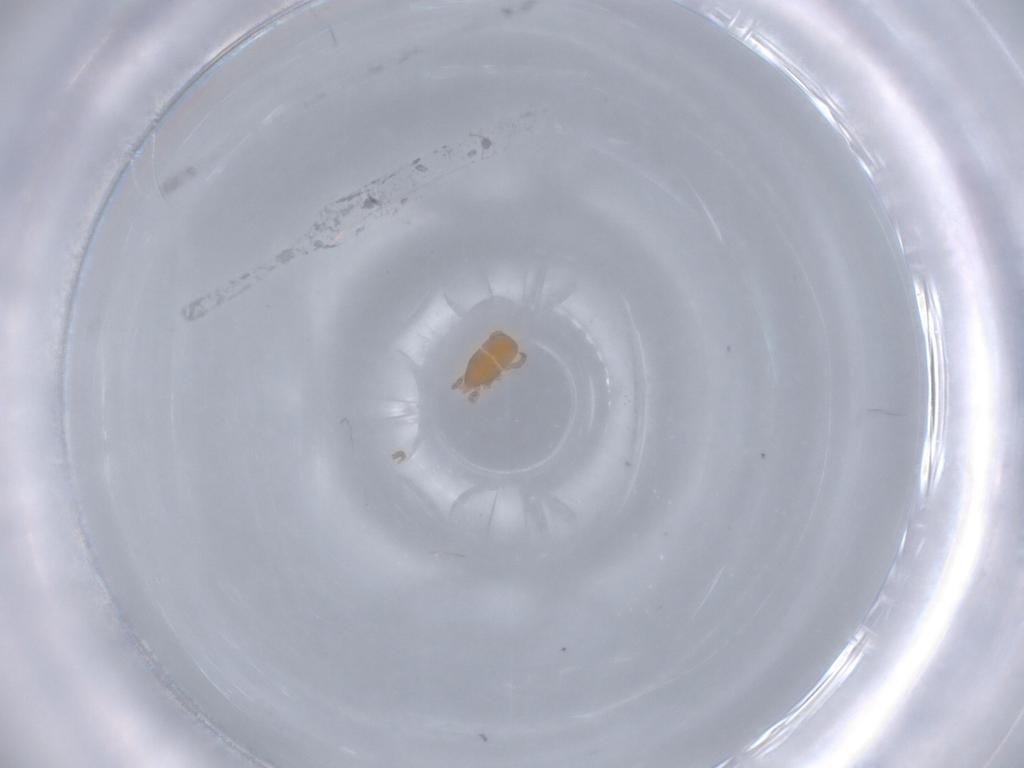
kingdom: Animalia
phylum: Arthropoda
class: Arachnida
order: Mesostigmata
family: Halolaelapidae
